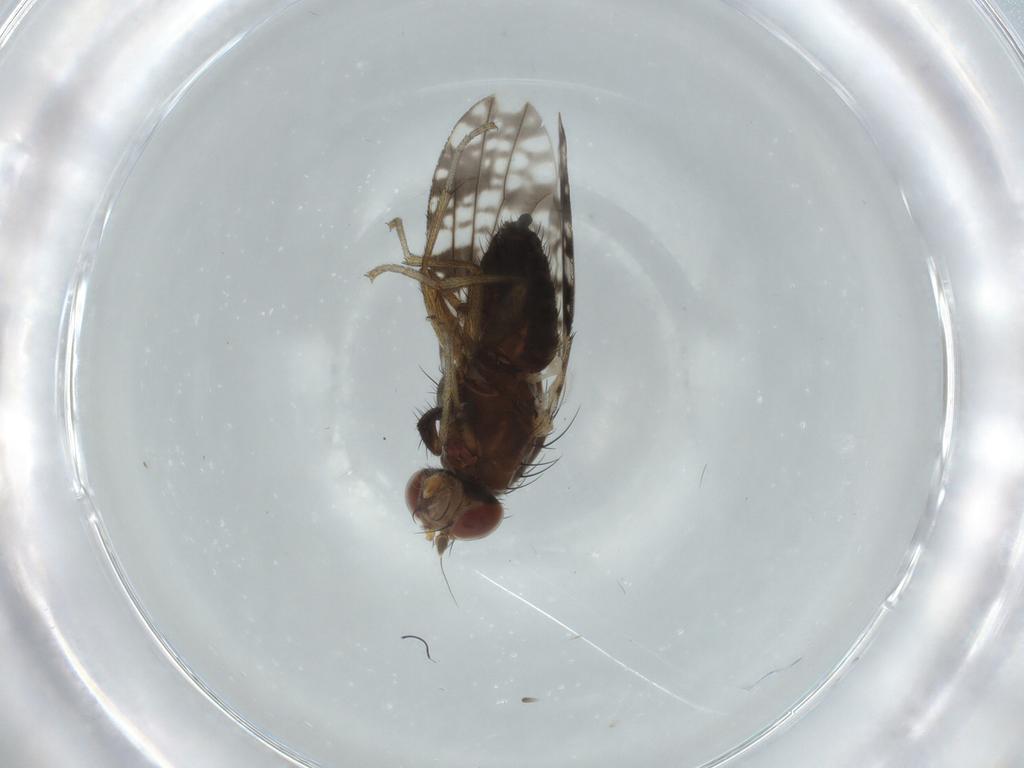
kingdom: Animalia
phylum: Arthropoda
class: Insecta
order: Diptera
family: Tephritidae
